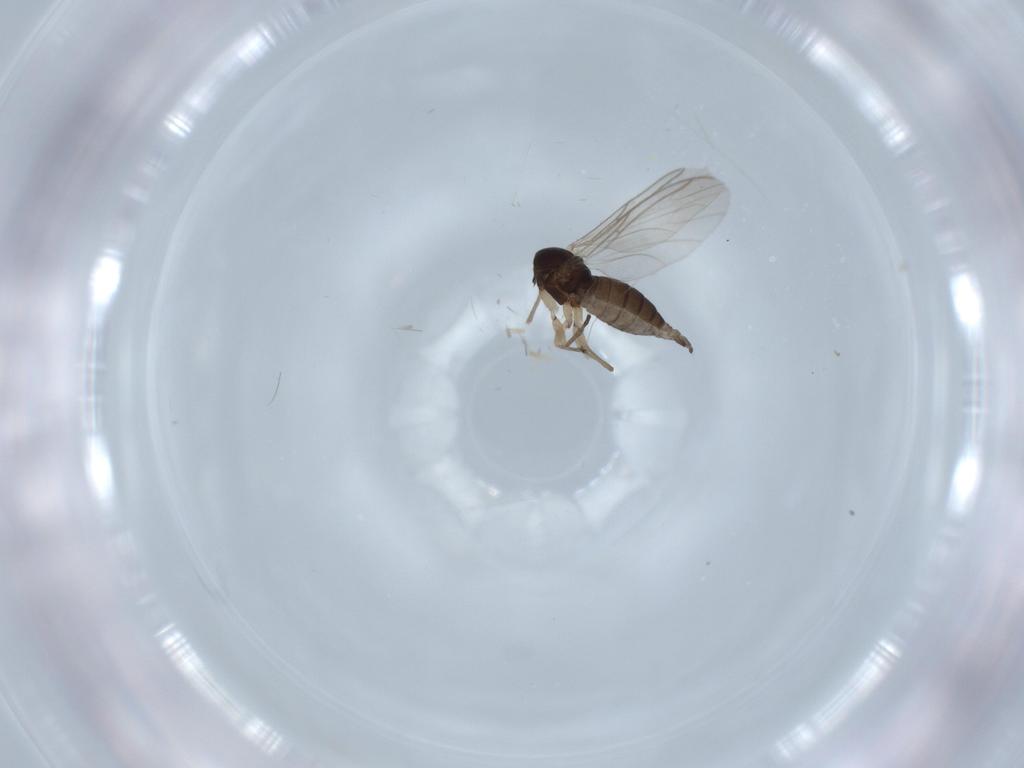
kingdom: Animalia
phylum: Arthropoda
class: Insecta
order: Diptera
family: Sciaridae
